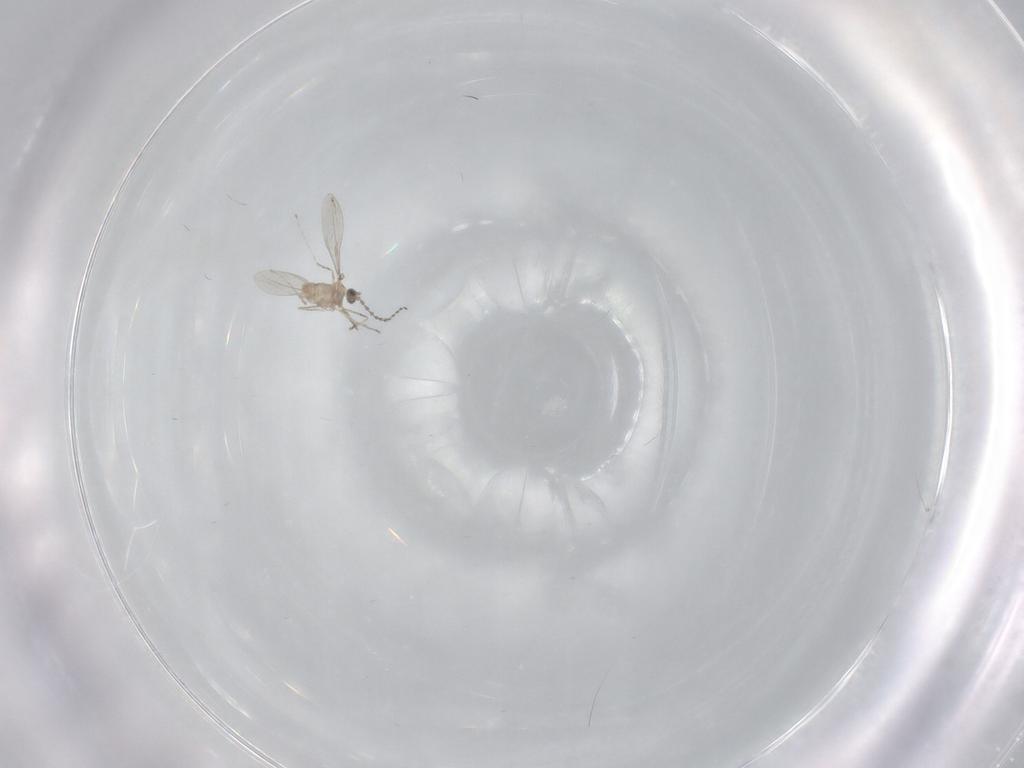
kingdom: Animalia
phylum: Arthropoda
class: Insecta
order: Diptera
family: Cecidomyiidae
